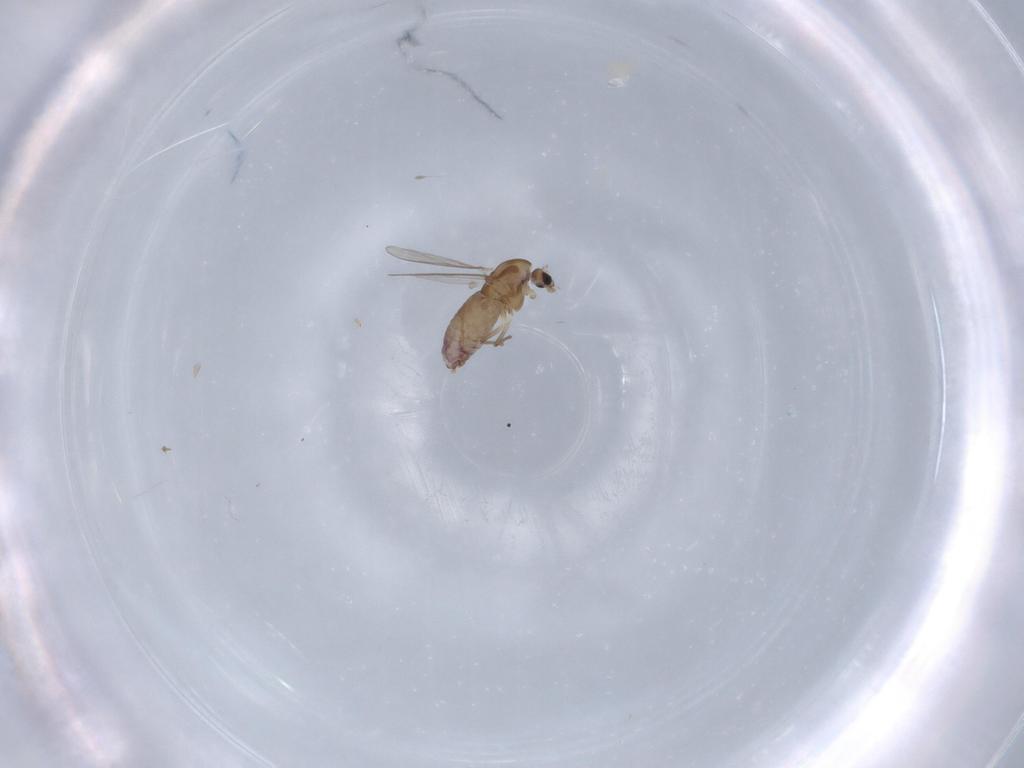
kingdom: Animalia
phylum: Arthropoda
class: Insecta
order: Diptera
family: Chironomidae
